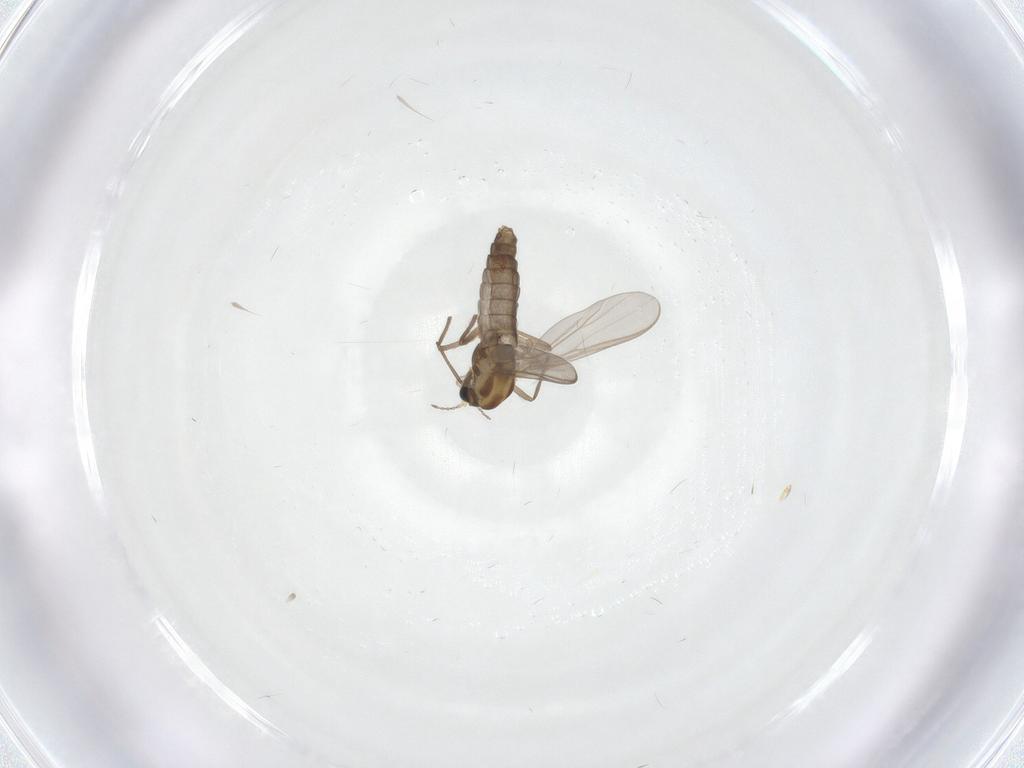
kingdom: Animalia
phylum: Arthropoda
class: Insecta
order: Diptera
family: Chironomidae
